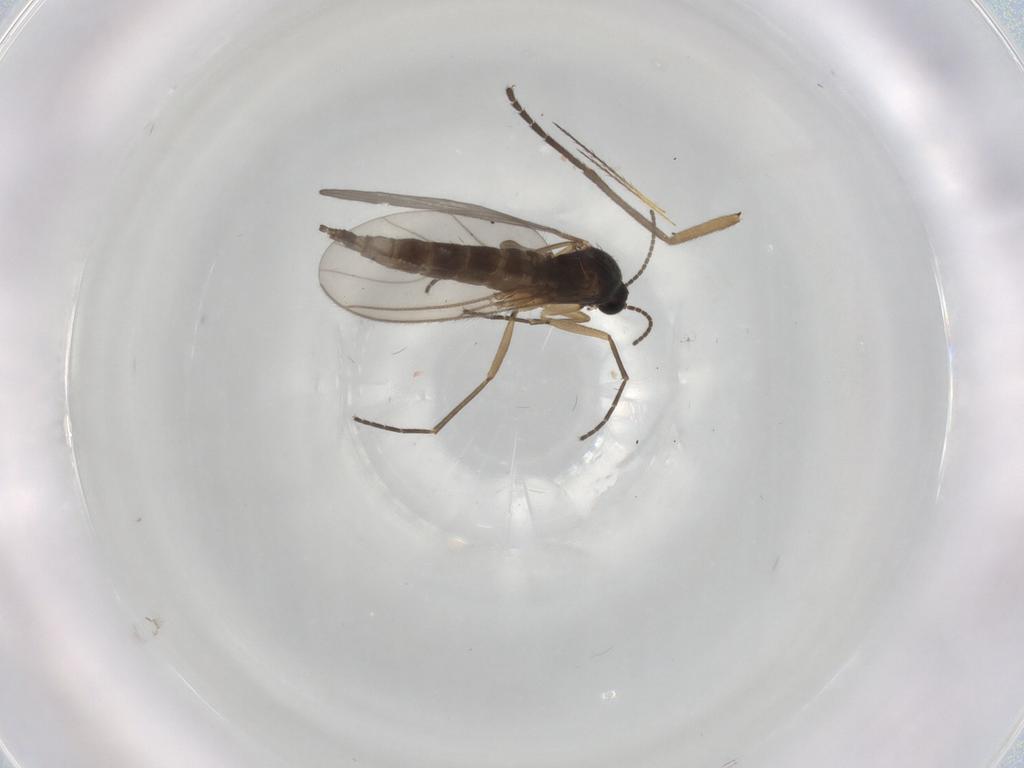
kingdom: Animalia
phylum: Arthropoda
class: Insecta
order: Diptera
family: Sciaridae
